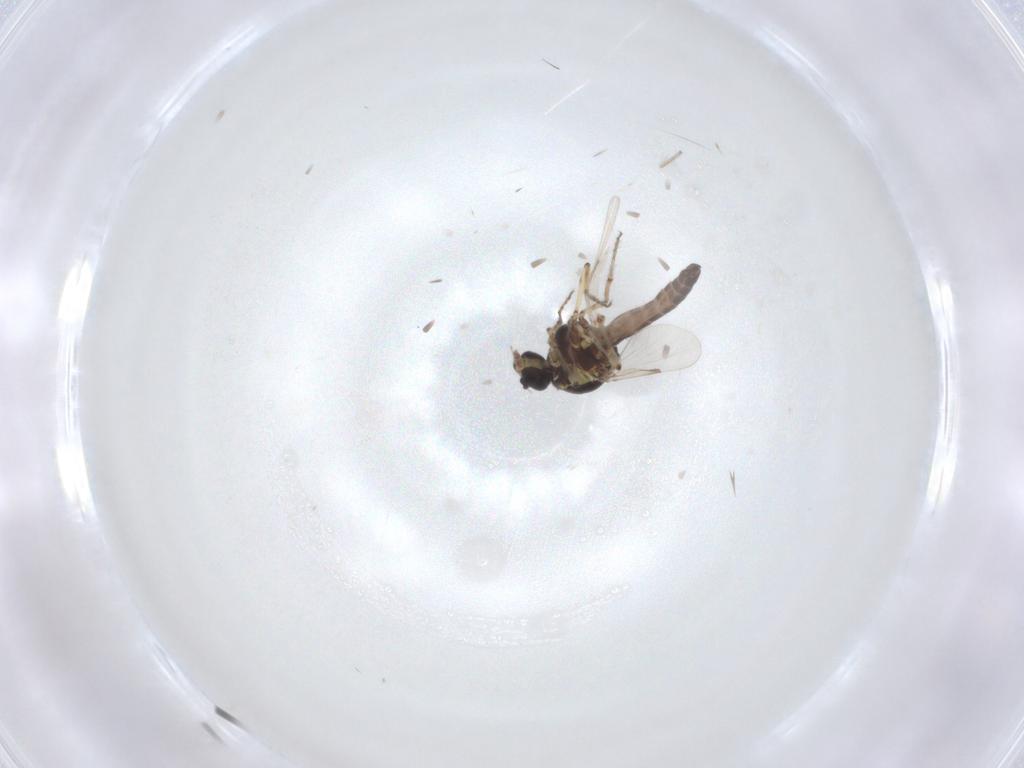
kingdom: Animalia
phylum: Arthropoda
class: Insecta
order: Diptera
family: Ceratopogonidae
